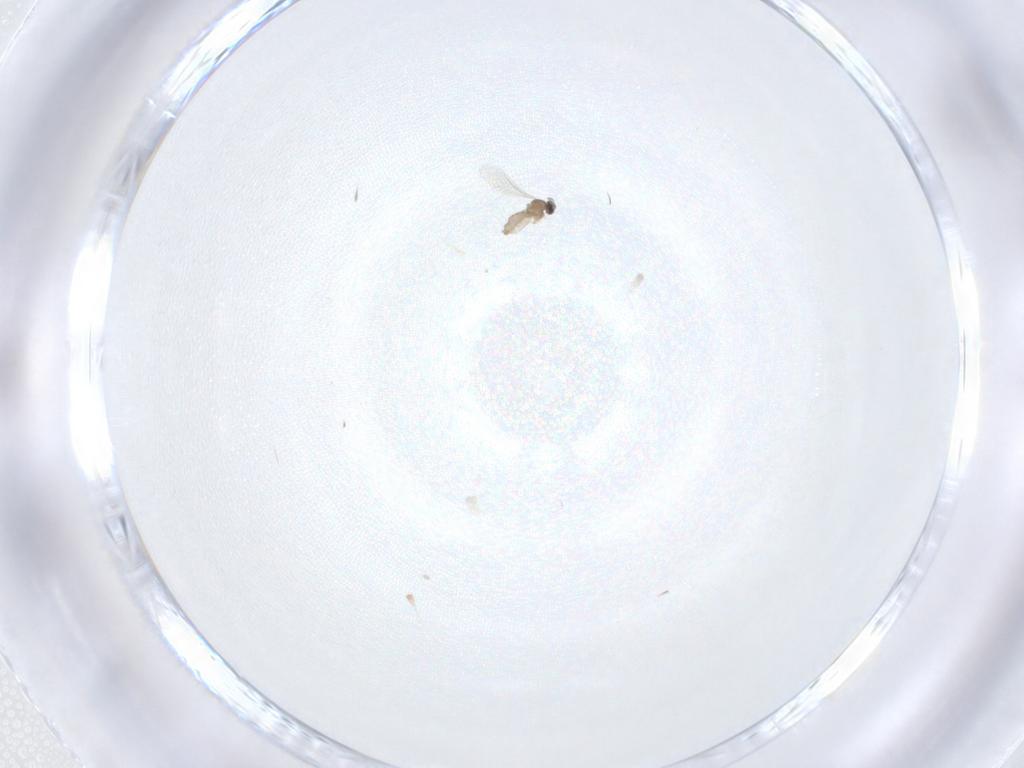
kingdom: Animalia
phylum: Arthropoda
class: Insecta
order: Diptera
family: Cecidomyiidae
